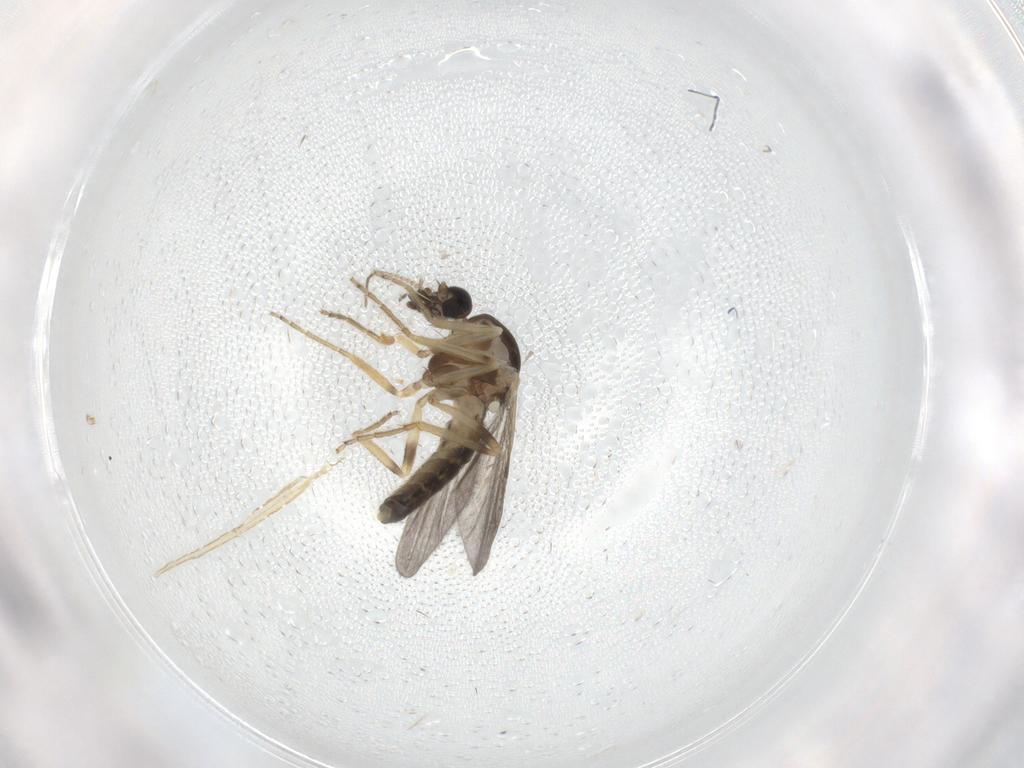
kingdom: Animalia
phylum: Arthropoda
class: Insecta
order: Diptera
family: Ceratopogonidae
